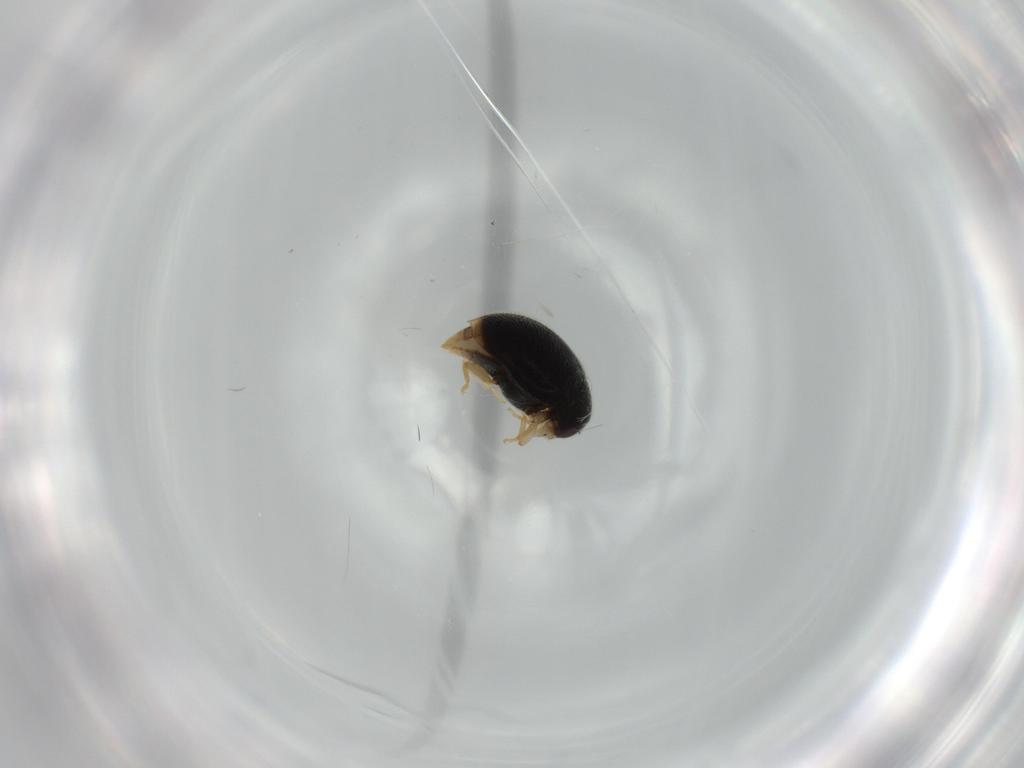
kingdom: Animalia
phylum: Arthropoda
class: Insecta
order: Coleoptera
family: Coccinellidae
